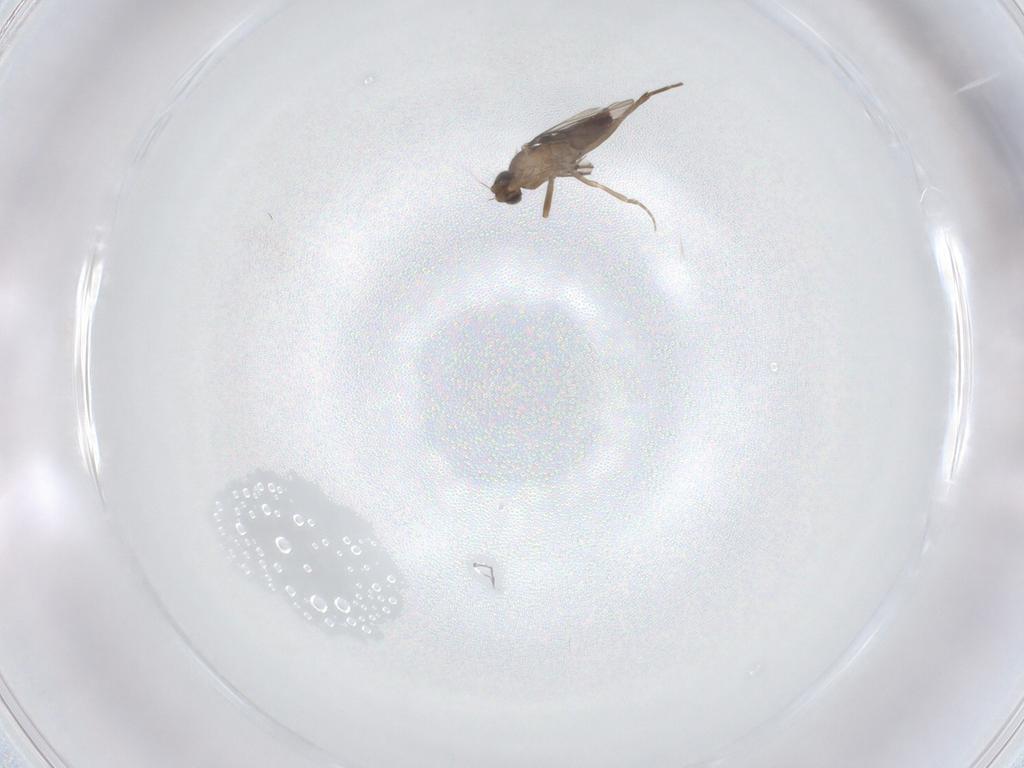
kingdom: Animalia
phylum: Arthropoda
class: Insecta
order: Diptera
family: Phoridae
